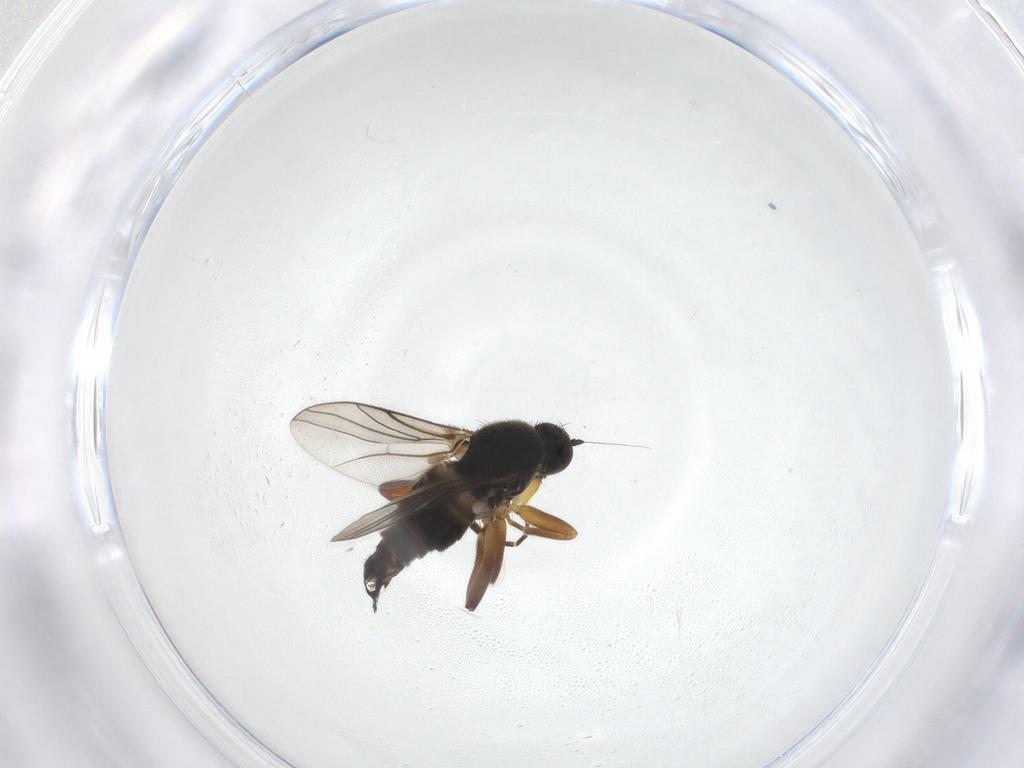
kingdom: Animalia
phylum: Arthropoda
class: Insecta
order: Diptera
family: Hybotidae
